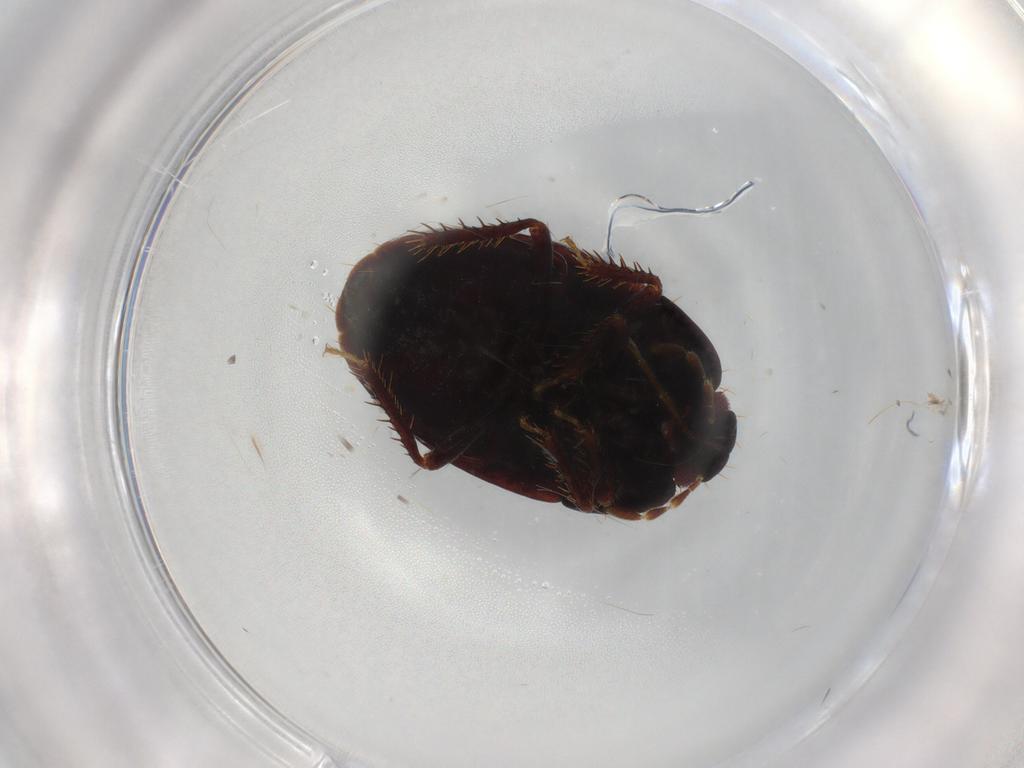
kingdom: Animalia
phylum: Arthropoda
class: Insecta
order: Hemiptera
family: Cydnidae
